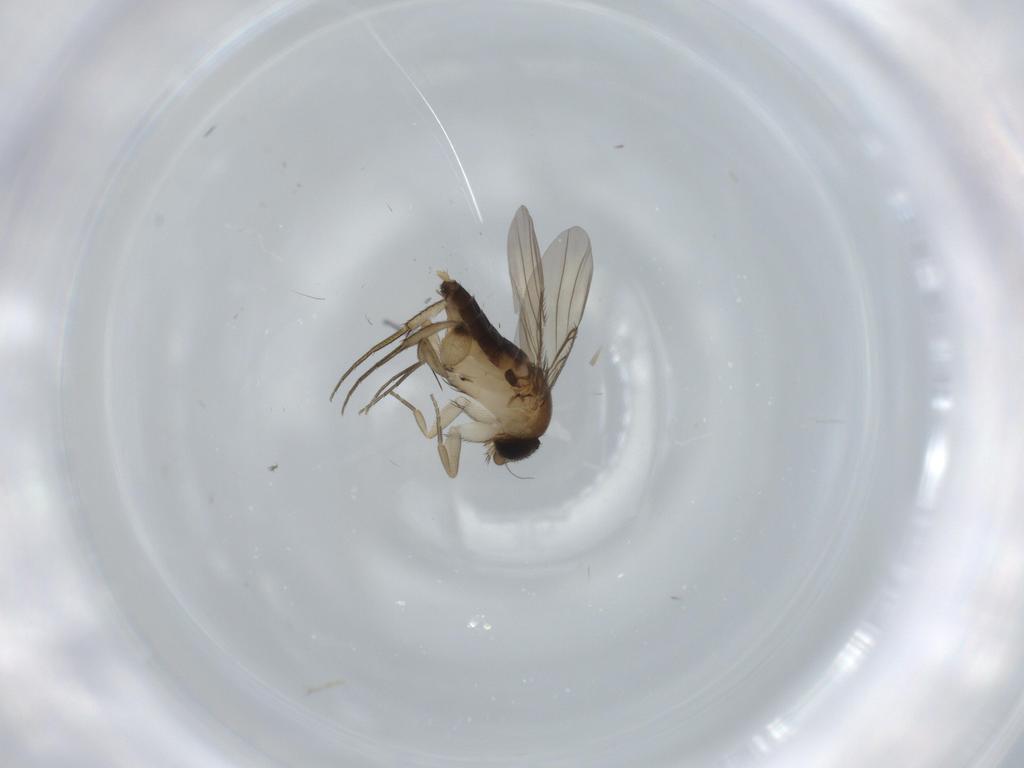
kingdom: Animalia
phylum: Arthropoda
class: Insecta
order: Diptera
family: Phoridae
